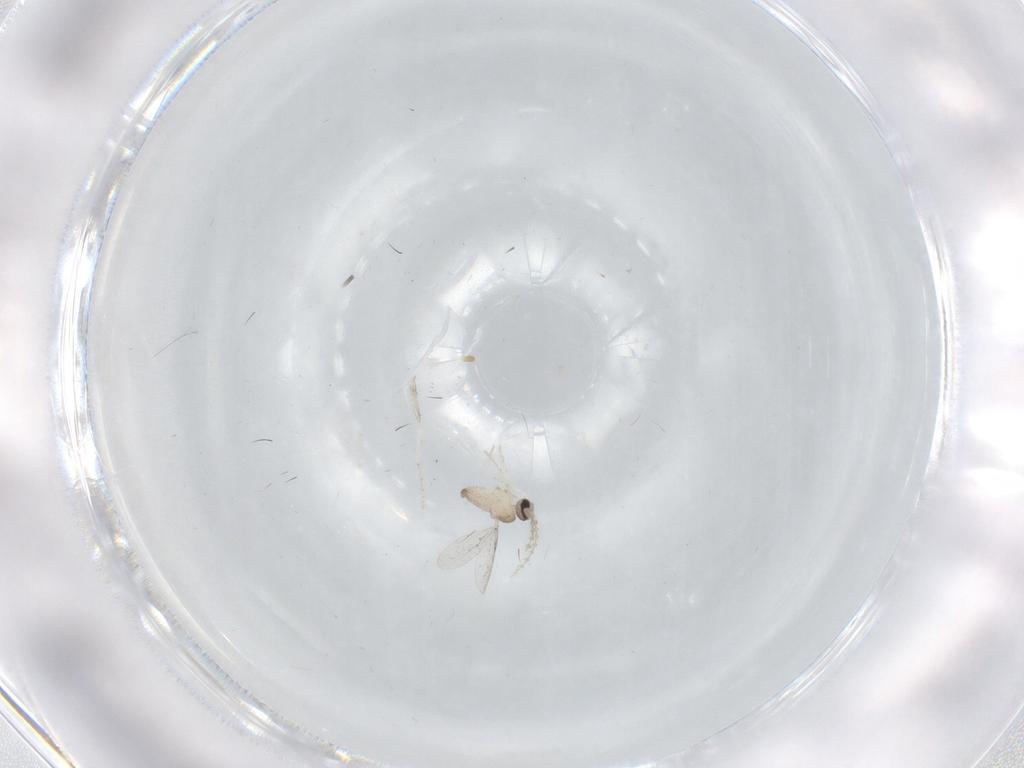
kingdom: Animalia
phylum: Arthropoda
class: Insecta
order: Diptera
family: Cecidomyiidae
